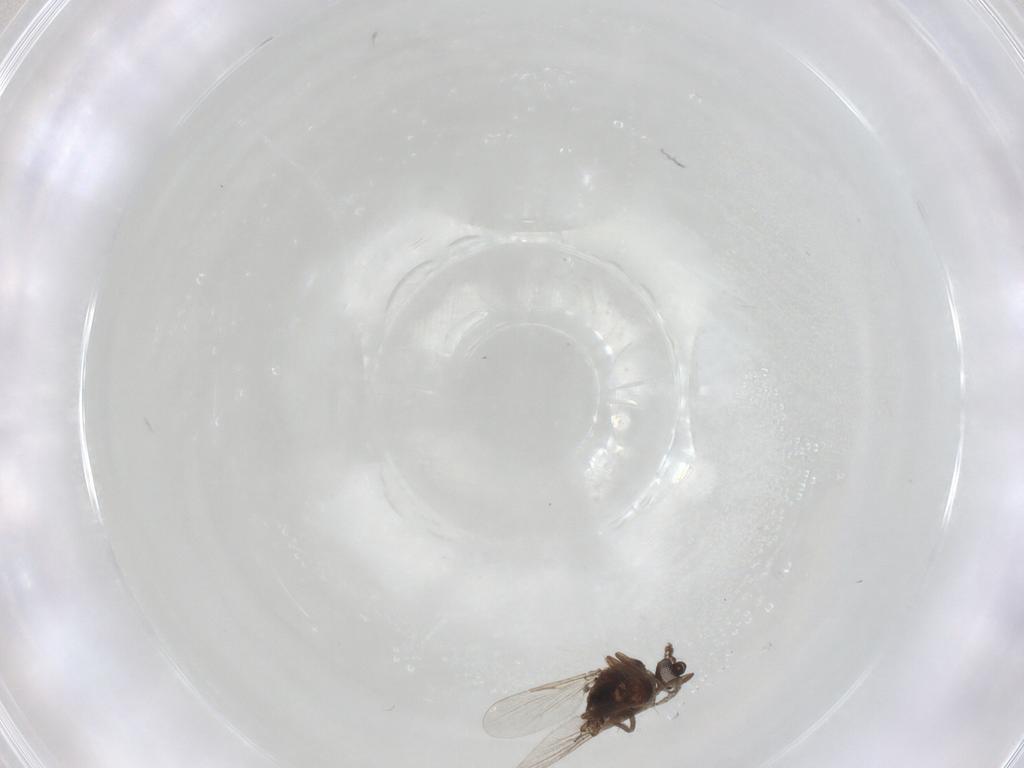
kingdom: Animalia
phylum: Arthropoda
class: Insecta
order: Diptera
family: Ceratopogonidae
